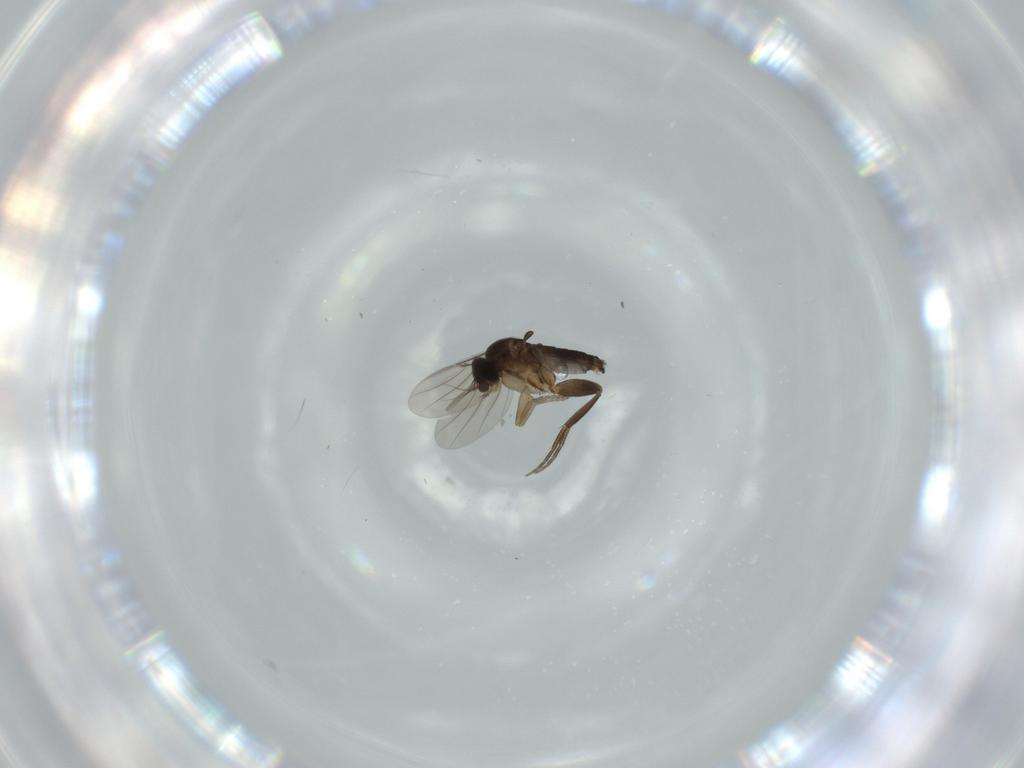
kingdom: Animalia
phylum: Arthropoda
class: Insecta
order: Diptera
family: Phoridae
